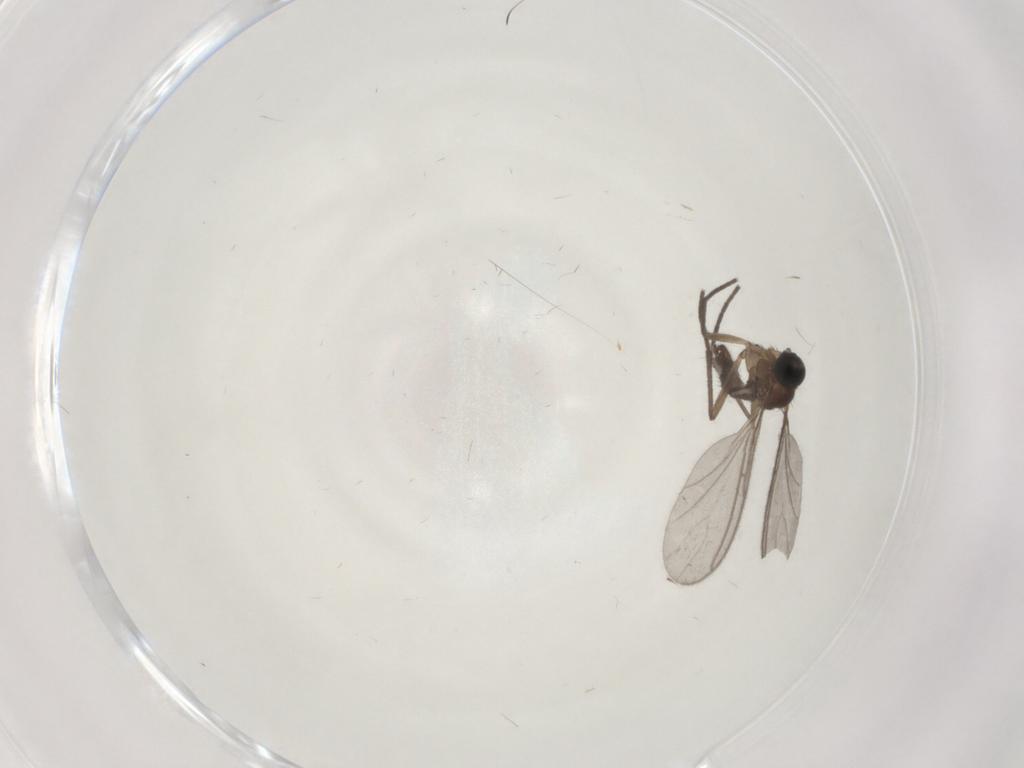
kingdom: Animalia
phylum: Arthropoda
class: Insecta
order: Diptera
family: Sciaridae
